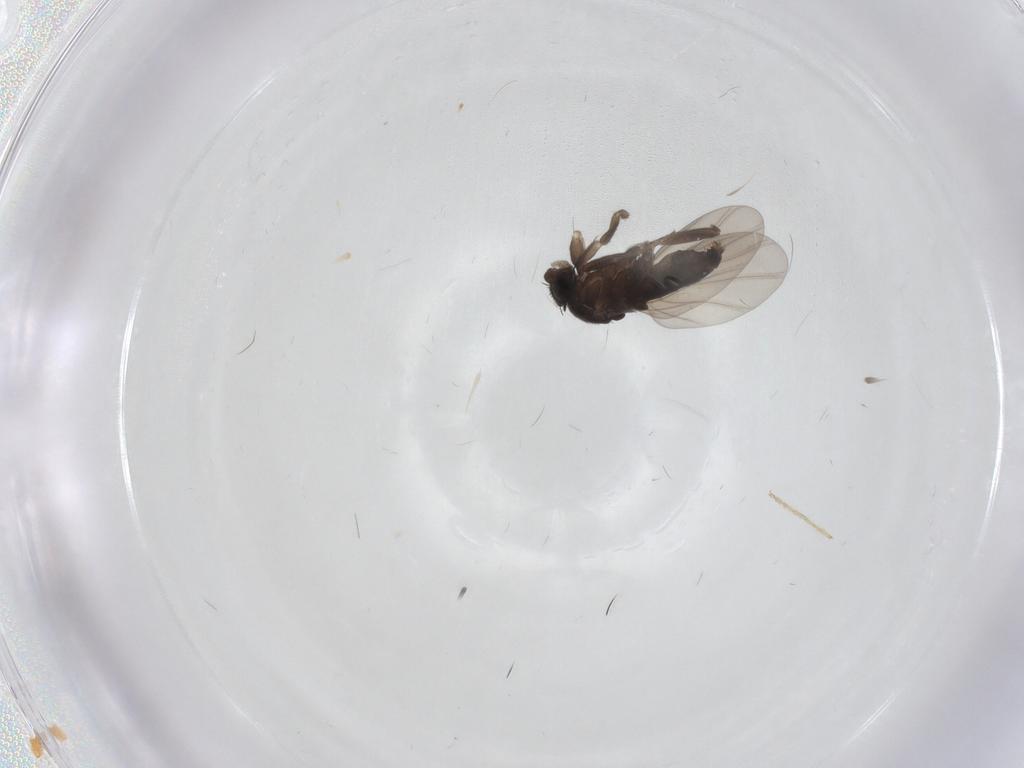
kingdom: Animalia
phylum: Arthropoda
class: Insecta
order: Diptera
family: Phoridae
